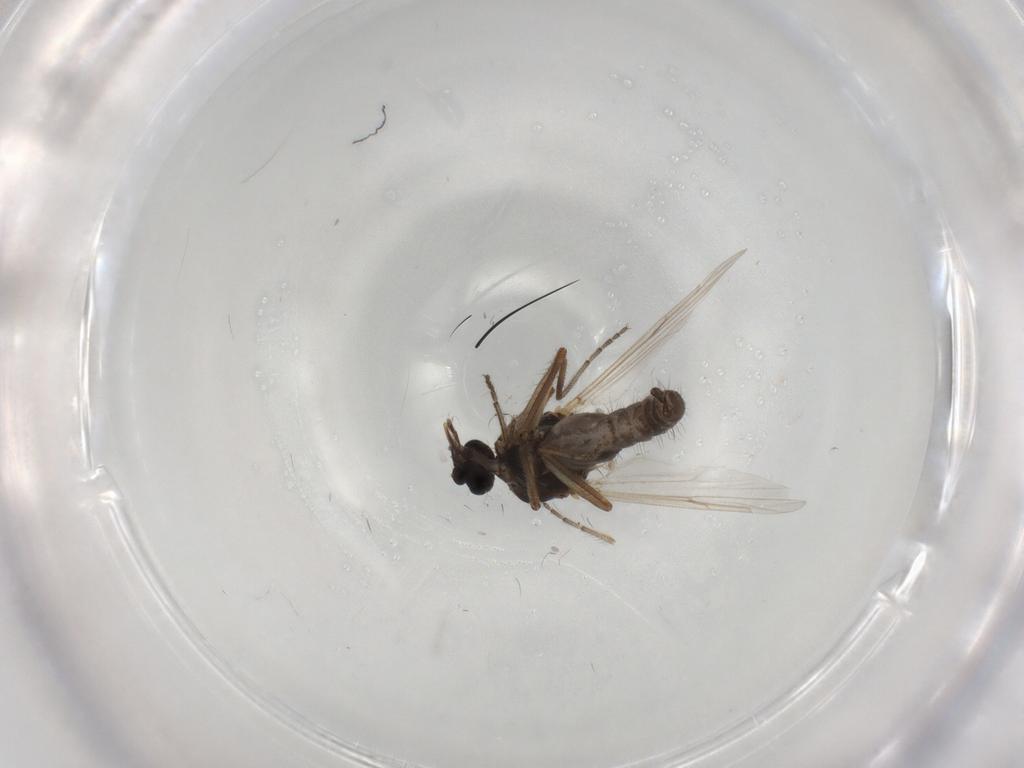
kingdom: Animalia
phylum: Arthropoda
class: Insecta
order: Diptera
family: Ceratopogonidae
